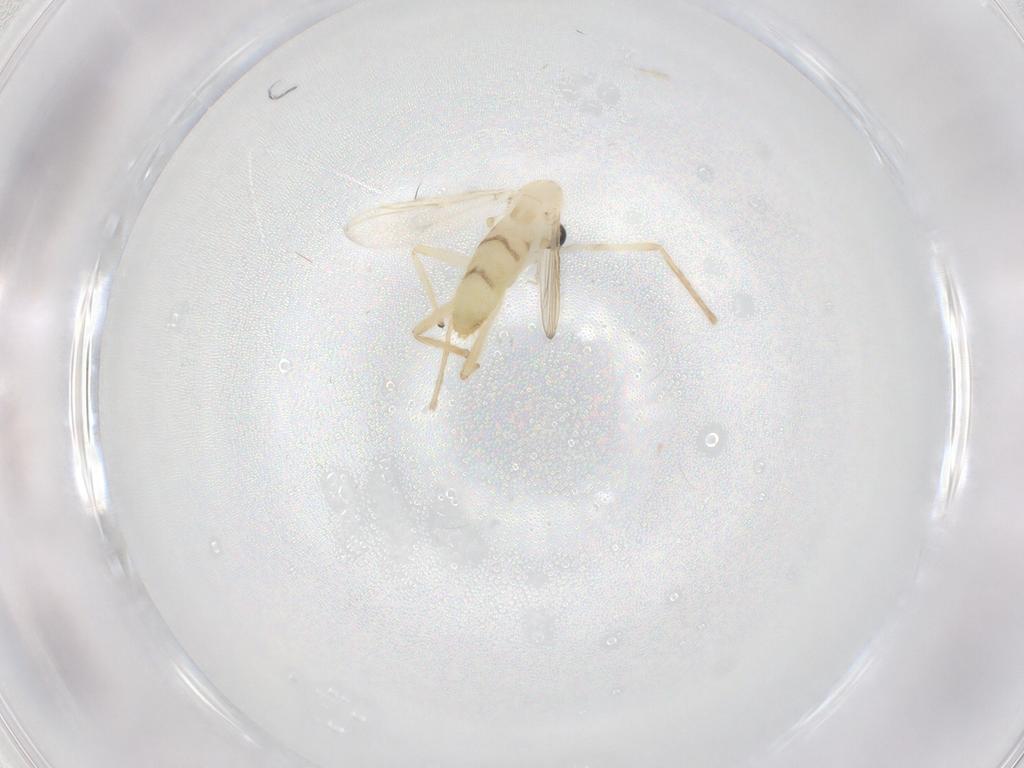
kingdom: Animalia
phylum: Arthropoda
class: Insecta
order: Diptera
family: Chironomidae
